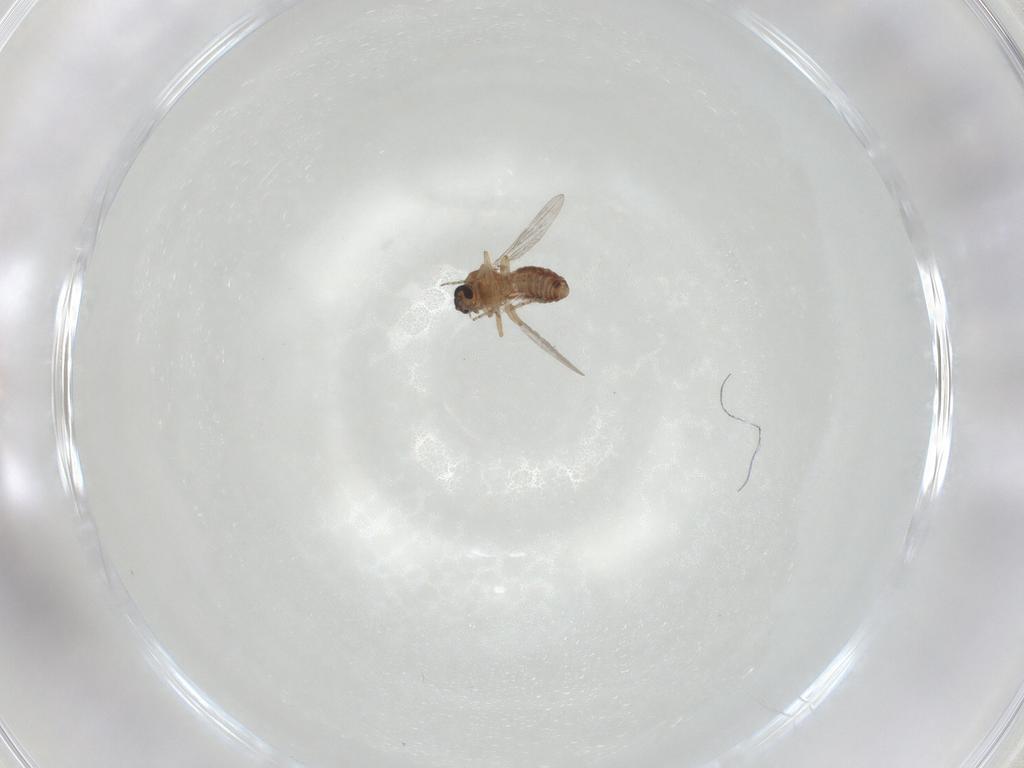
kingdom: Animalia
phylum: Arthropoda
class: Insecta
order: Diptera
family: Ceratopogonidae
